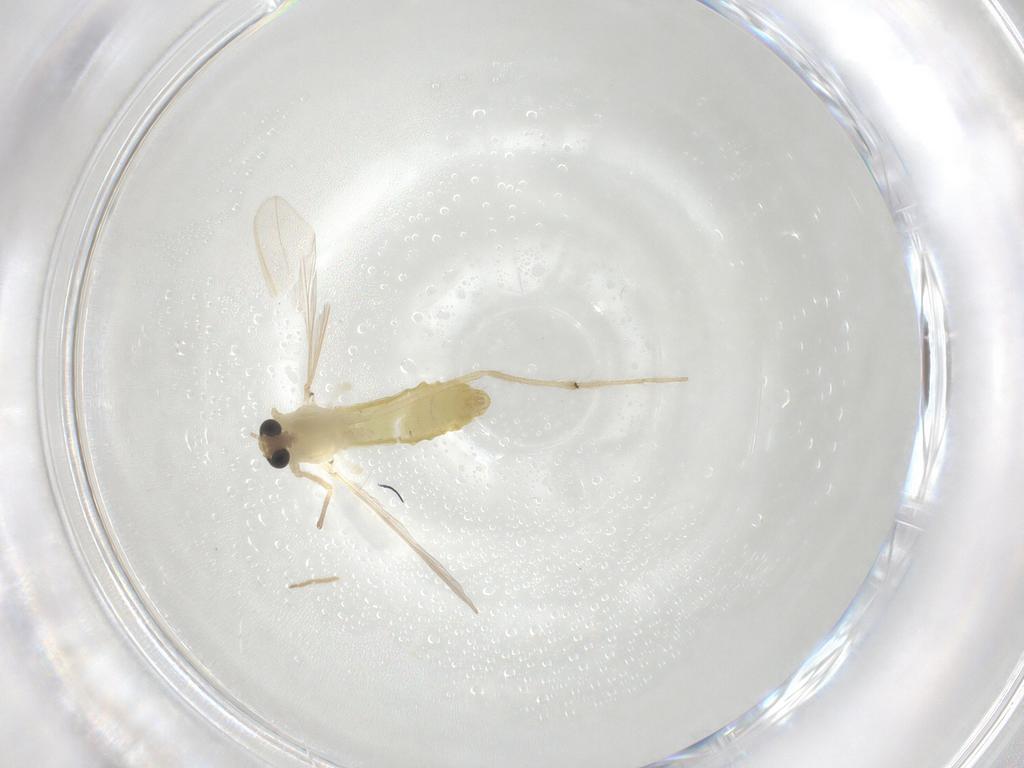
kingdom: Animalia
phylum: Arthropoda
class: Insecta
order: Diptera
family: Chironomidae
